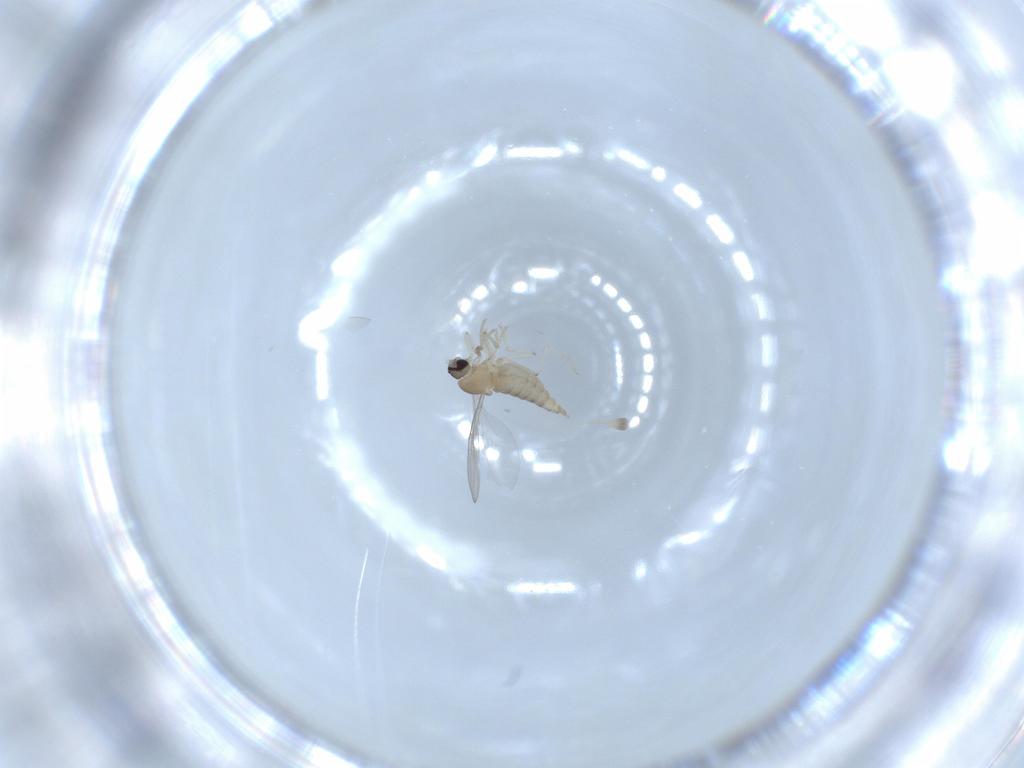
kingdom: Animalia
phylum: Arthropoda
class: Insecta
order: Diptera
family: Cecidomyiidae
